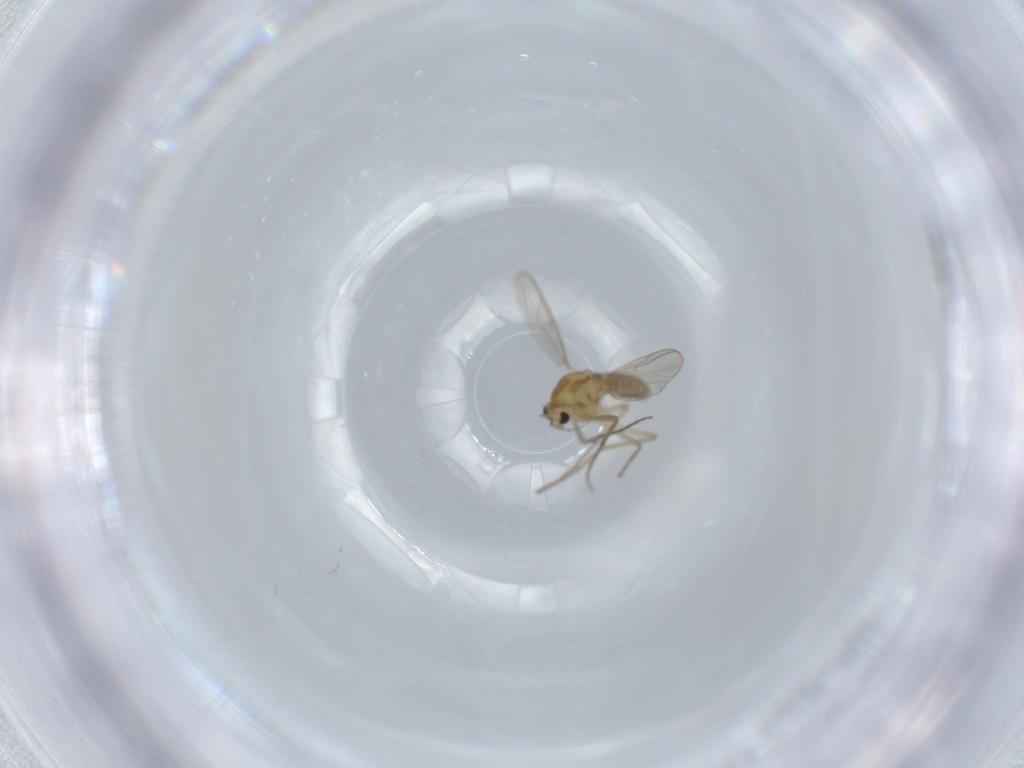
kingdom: Animalia
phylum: Arthropoda
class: Insecta
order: Diptera
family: Chironomidae
